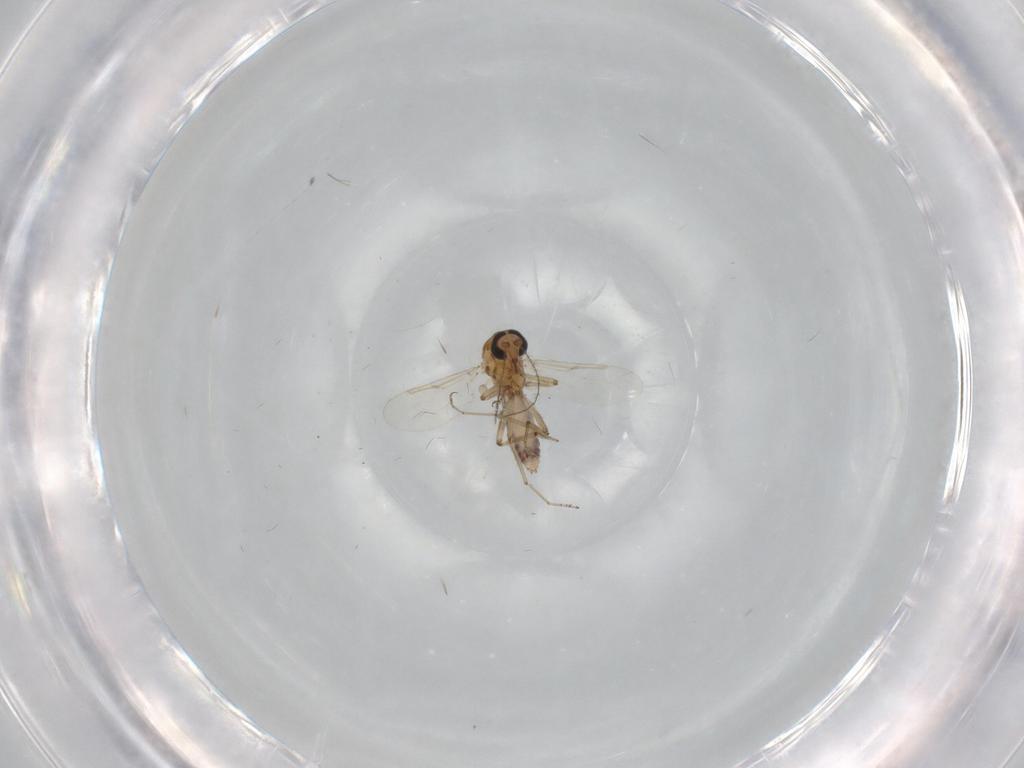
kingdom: Animalia
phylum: Arthropoda
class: Insecta
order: Diptera
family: Ceratopogonidae
